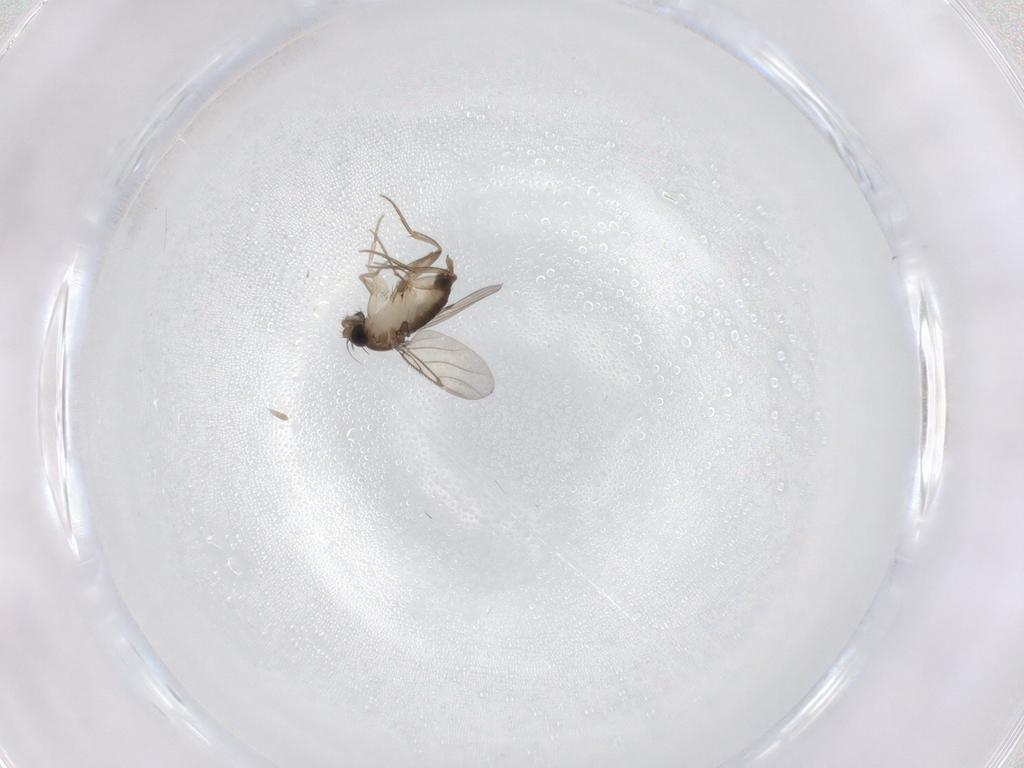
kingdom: Animalia
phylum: Arthropoda
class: Insecta
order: Diptera
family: Phoridae
